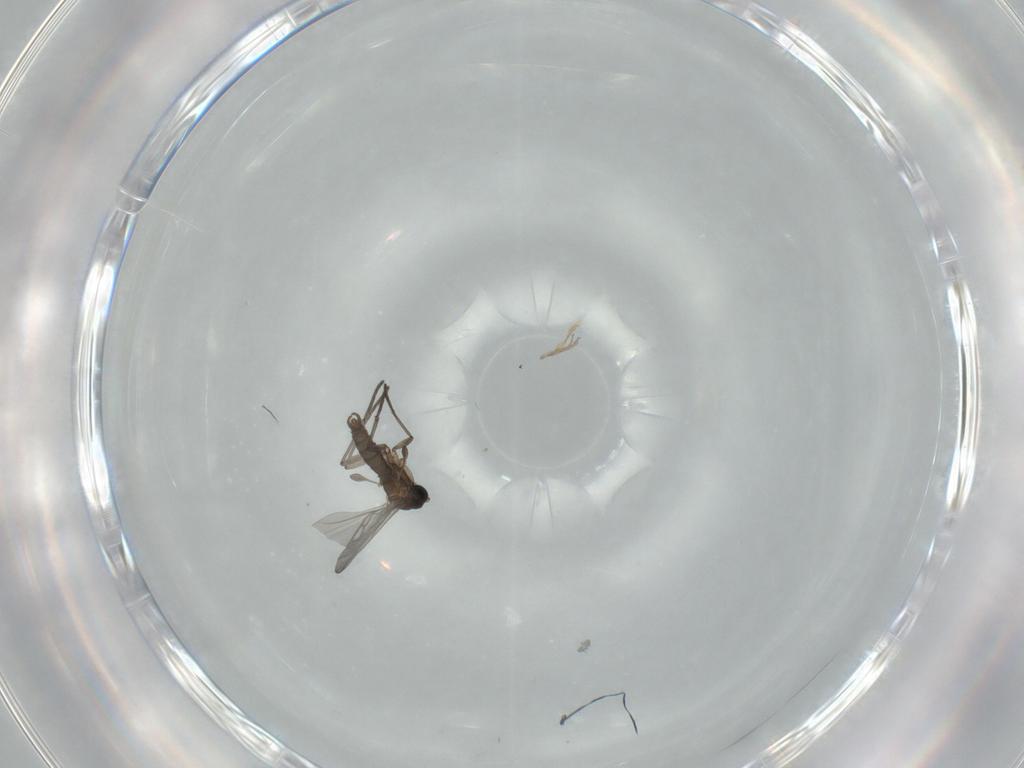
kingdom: Animalia
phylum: Arthropoda
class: Insecta
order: Diptera
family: Sciaridae
